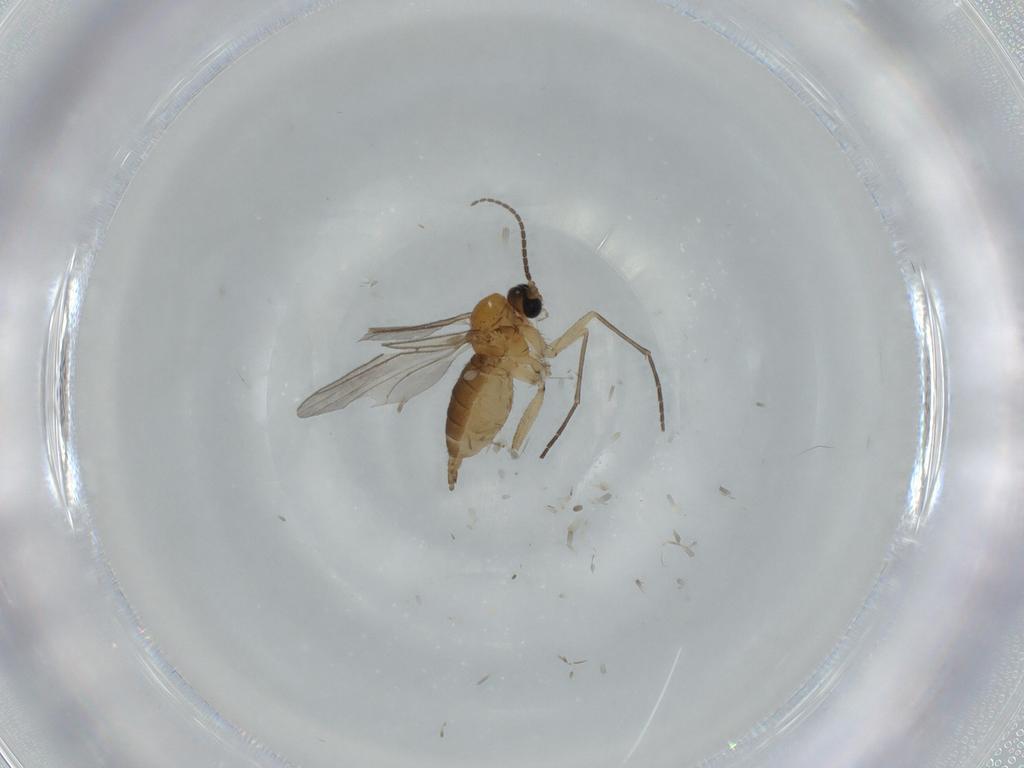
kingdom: Animalia
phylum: Arthropoda
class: Insecta
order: Diptera
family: Sciaridae
